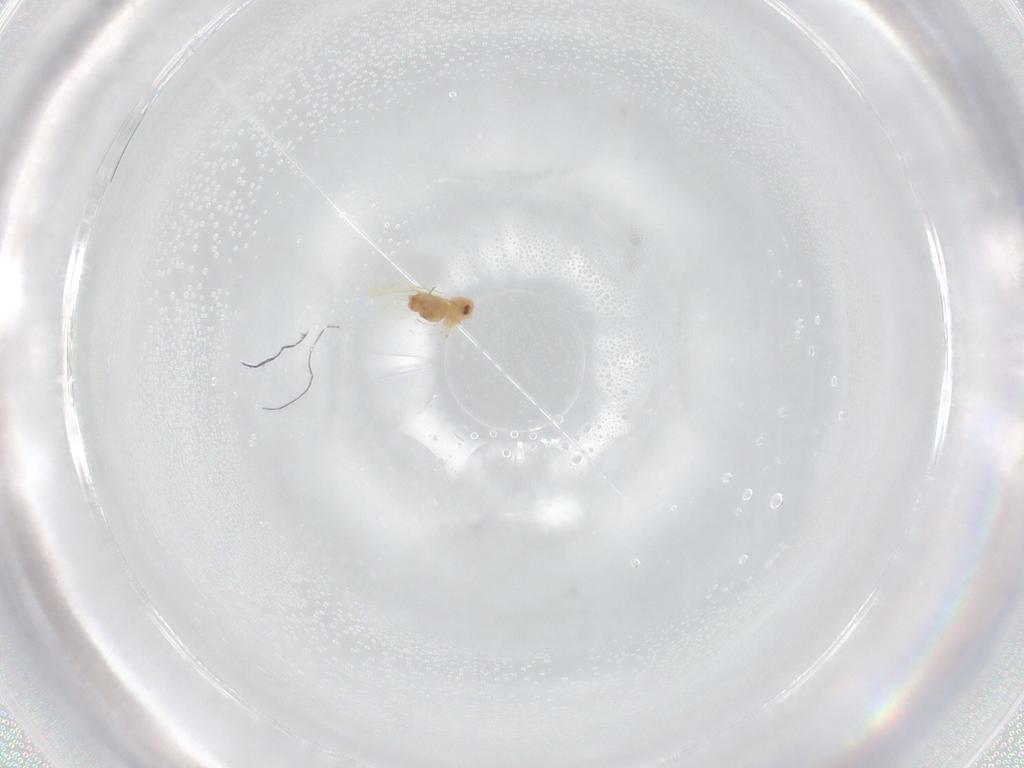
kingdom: Animalia
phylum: Arthropoda
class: Insecta
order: Hemiptera
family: Aleyrodidae
